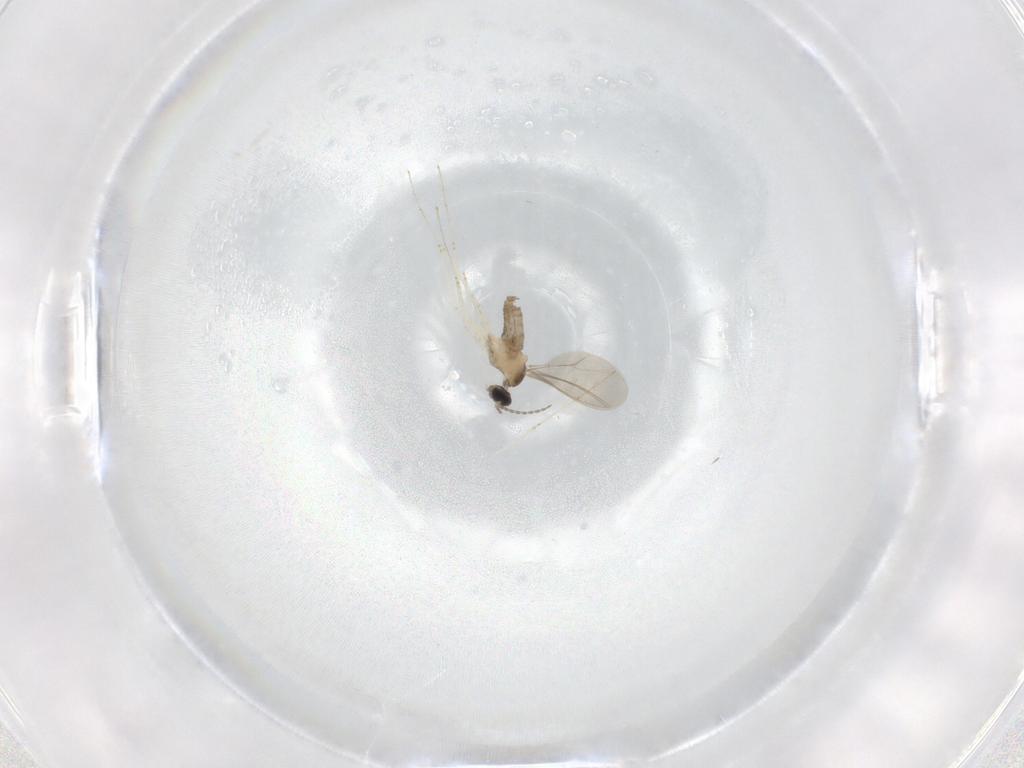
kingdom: Animalia
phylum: Arthropoda
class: Insecta
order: Diptera
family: Cecidomyiidae
